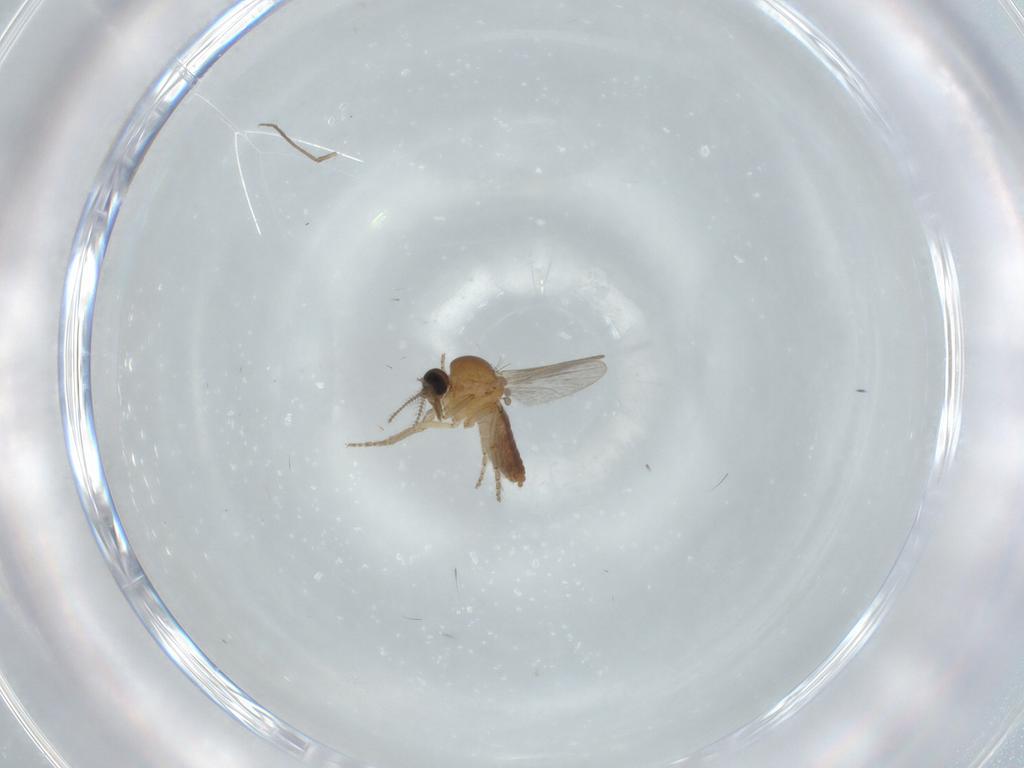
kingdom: Animalia
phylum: Arthropoda
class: Insecta
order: Diptera
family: Ceratopogonidae
